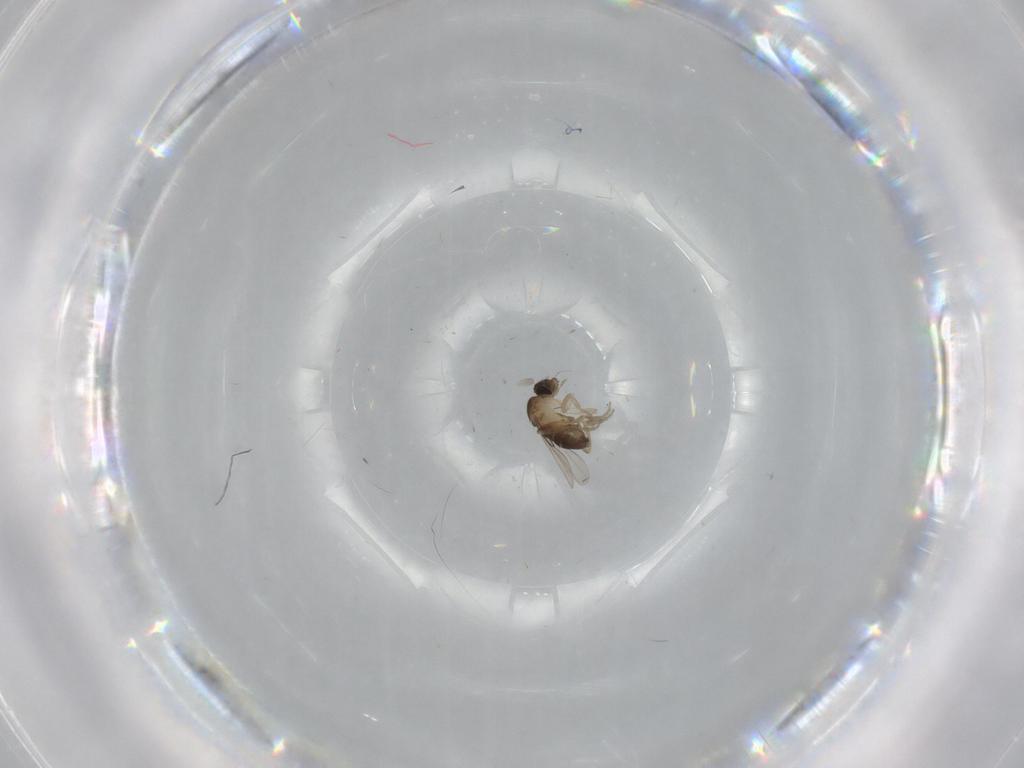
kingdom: Animalia
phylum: Arthropoda
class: Insecta
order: Diptera
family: Phoridae
